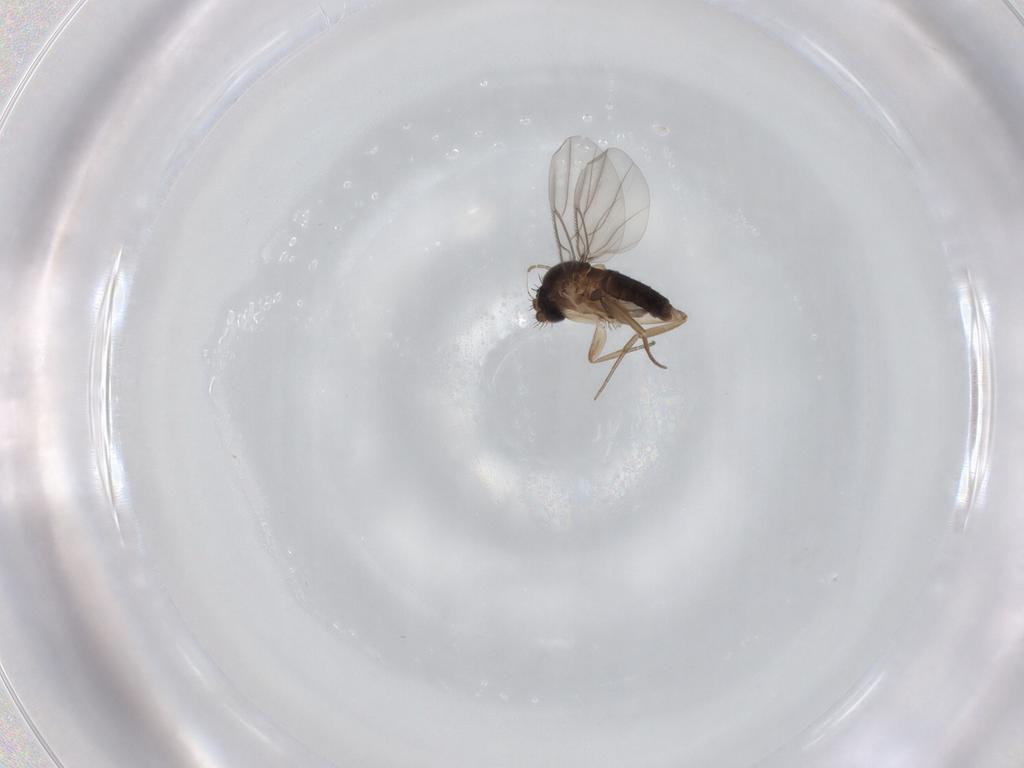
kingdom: Animalia
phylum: Arthropoda
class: Insecta
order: Diptera
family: Phoridae
